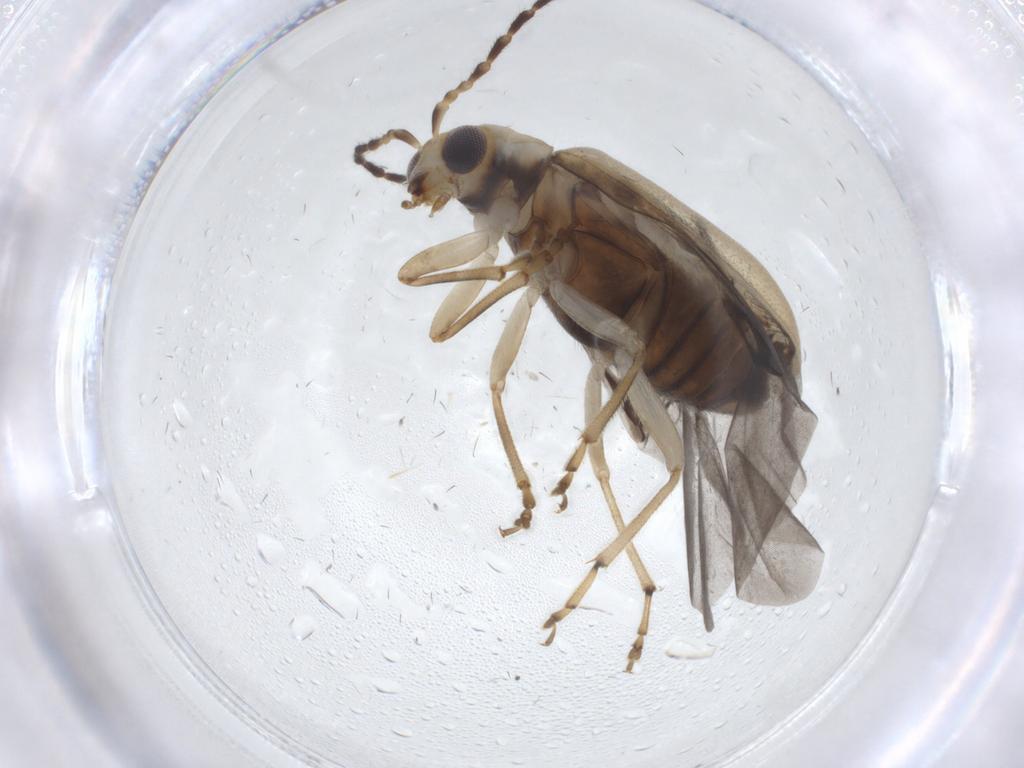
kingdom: Animalia
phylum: Arthropoda
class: Insecta
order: Coleoptera
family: Chrysomelidae
